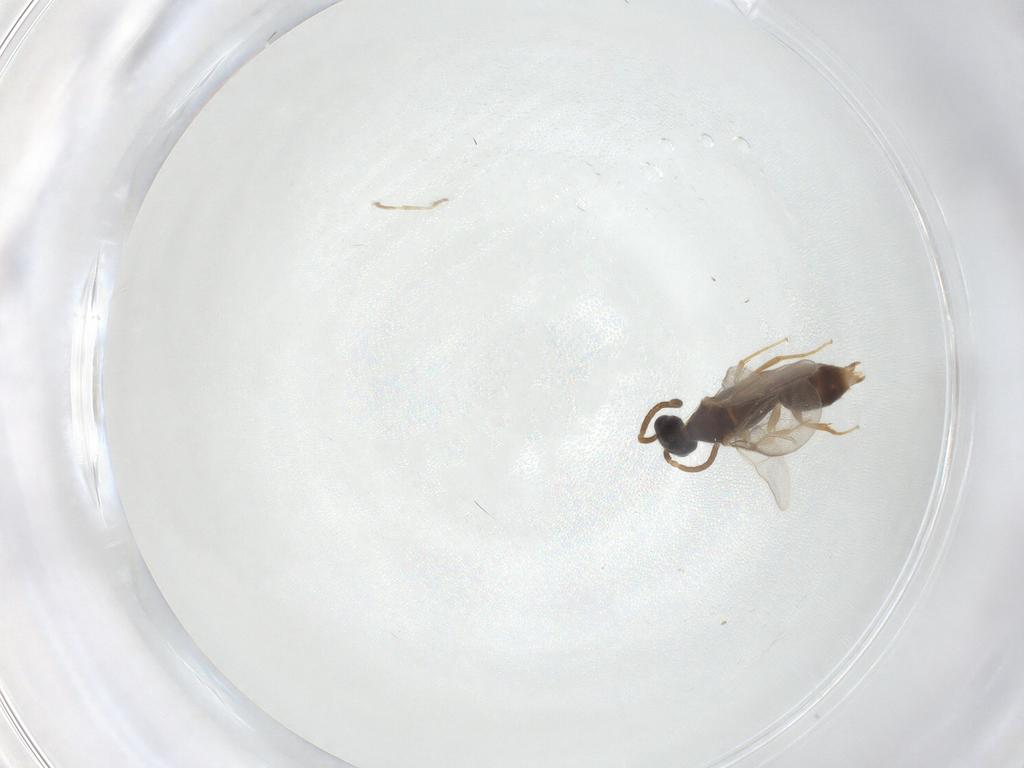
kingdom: Animalia
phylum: Arthropoda
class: Insecta
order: Hymenoptera
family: Bethylidae
